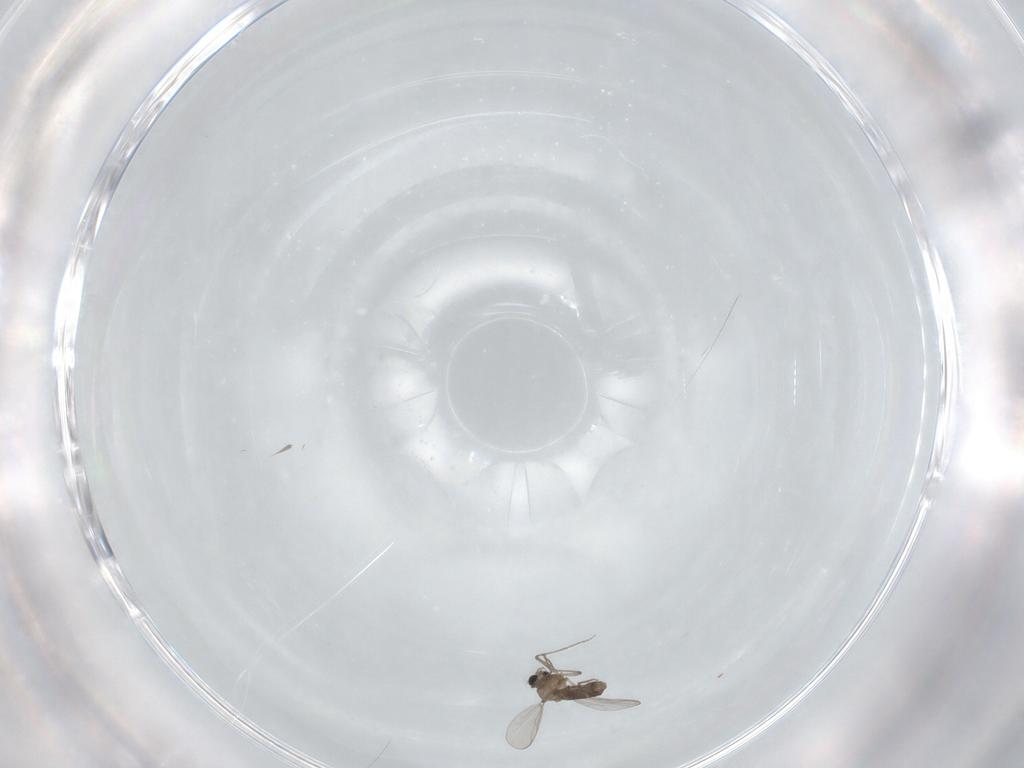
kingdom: Animalia
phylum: Arthropoda
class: Insecta
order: Diptera
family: Cecidomyiidae
